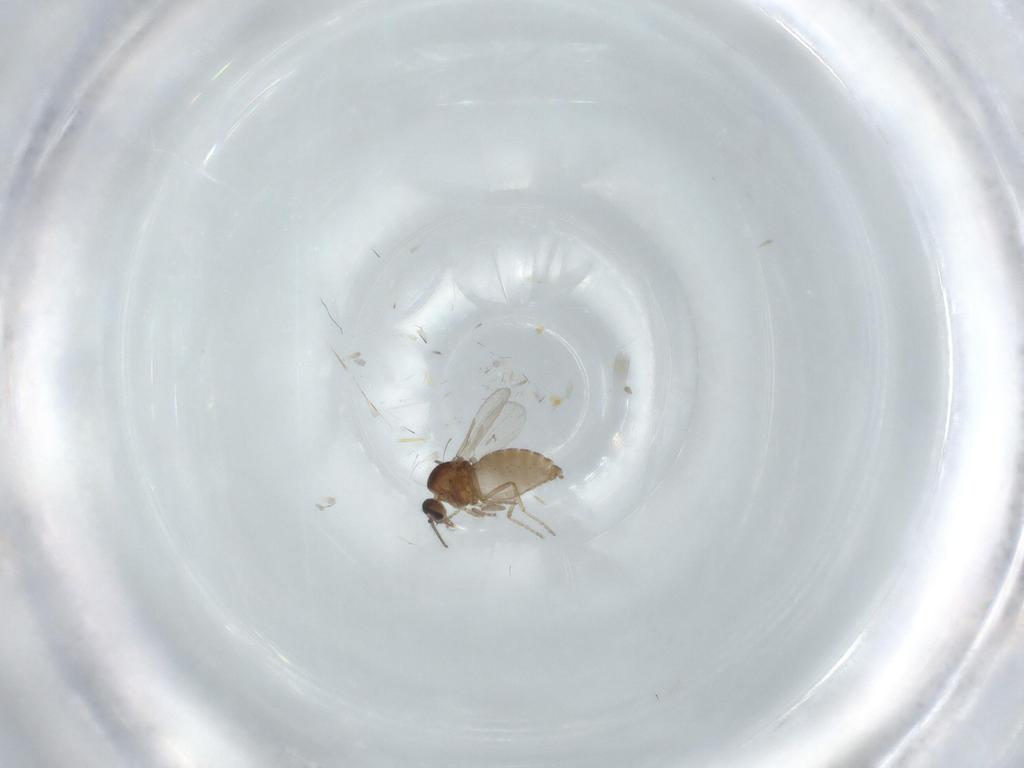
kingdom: Animalia
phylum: Arthropoda
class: Insecta
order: Diptera
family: Ceratopogonidae
